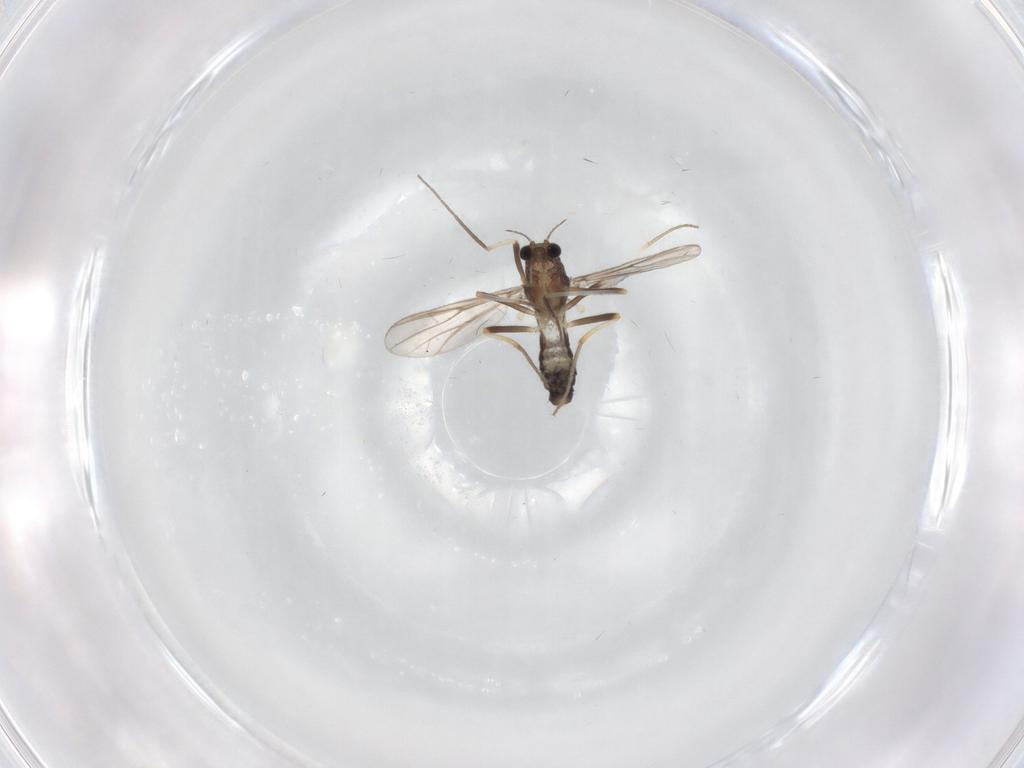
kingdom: Animalia
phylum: Arthropoda
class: Insecta
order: Diptera
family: Chironomidae
